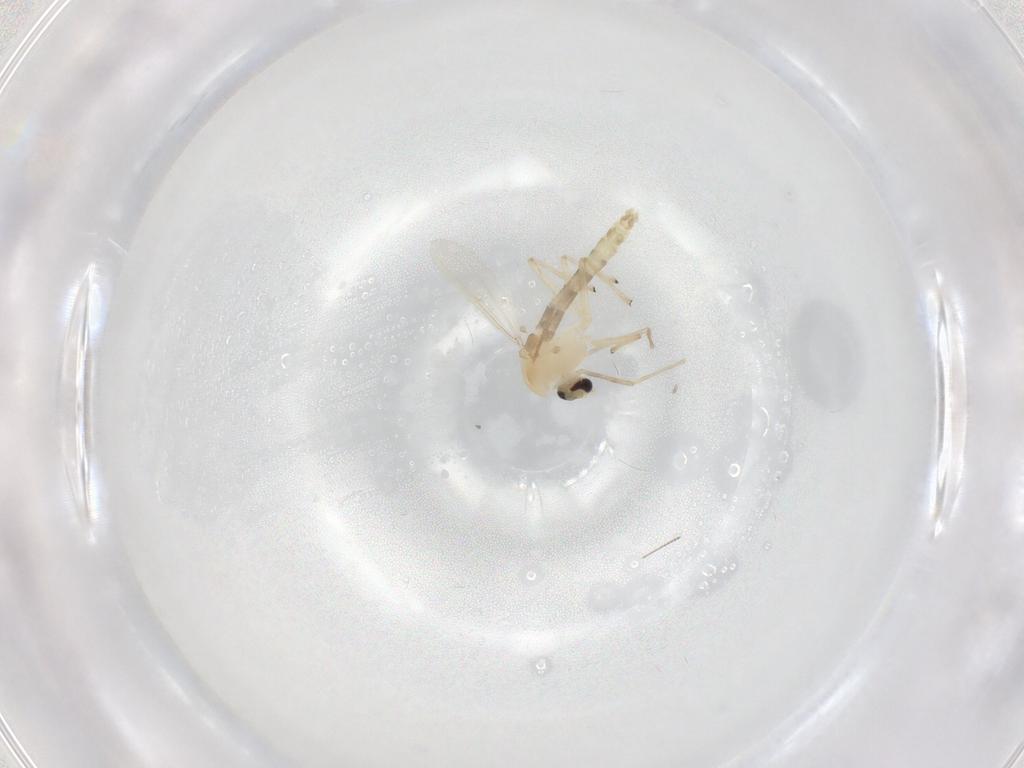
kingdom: Animalia
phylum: Arthropoda
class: Insecta
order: Diptera
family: Chironomidae
